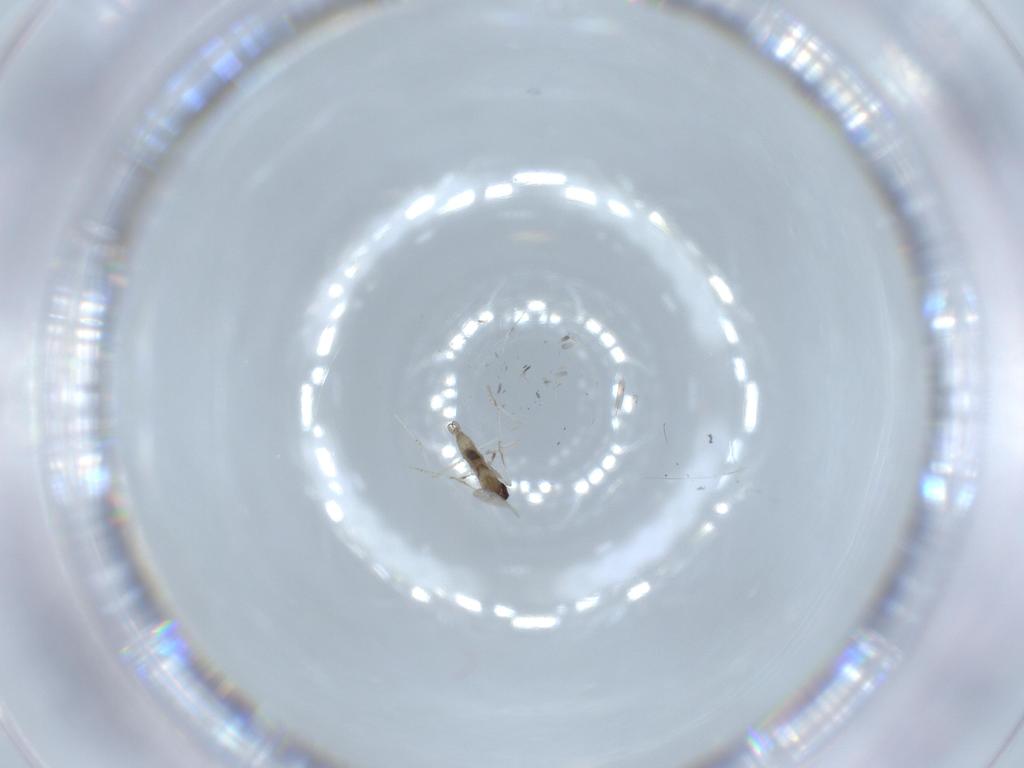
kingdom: Animalia
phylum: Arthropoda
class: Insecta
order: Diptera
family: Cecidomyiidae
